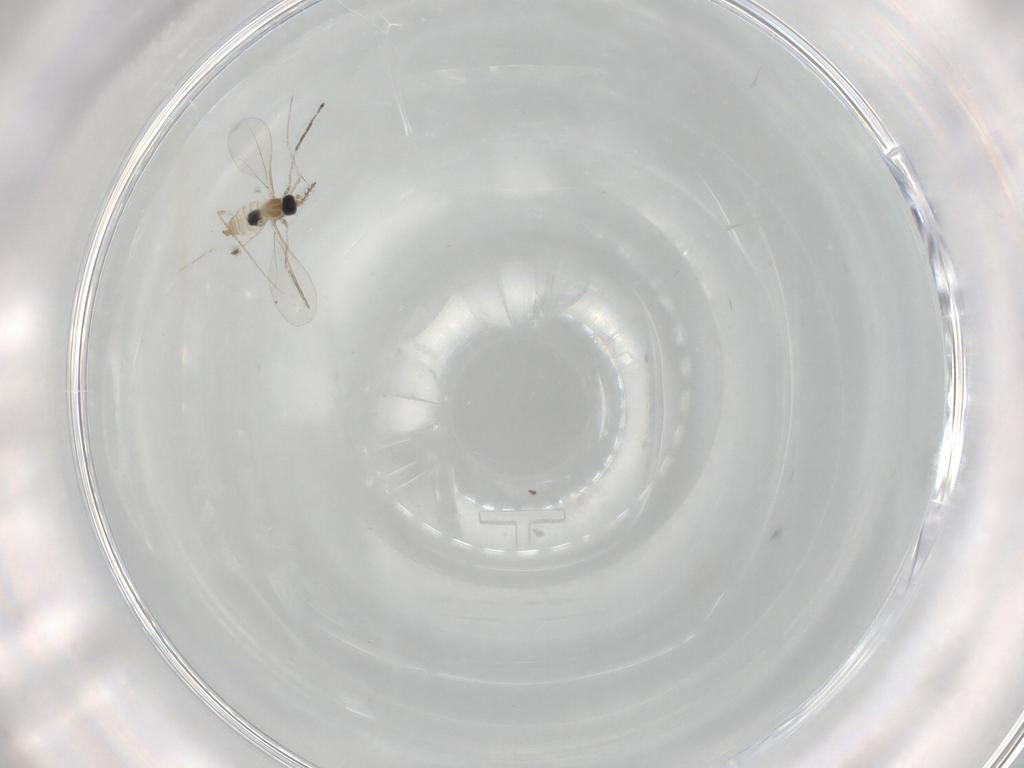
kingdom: Animalia
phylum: Arthropoda
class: Insecta
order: Diptera
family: Cecidomyiidae
